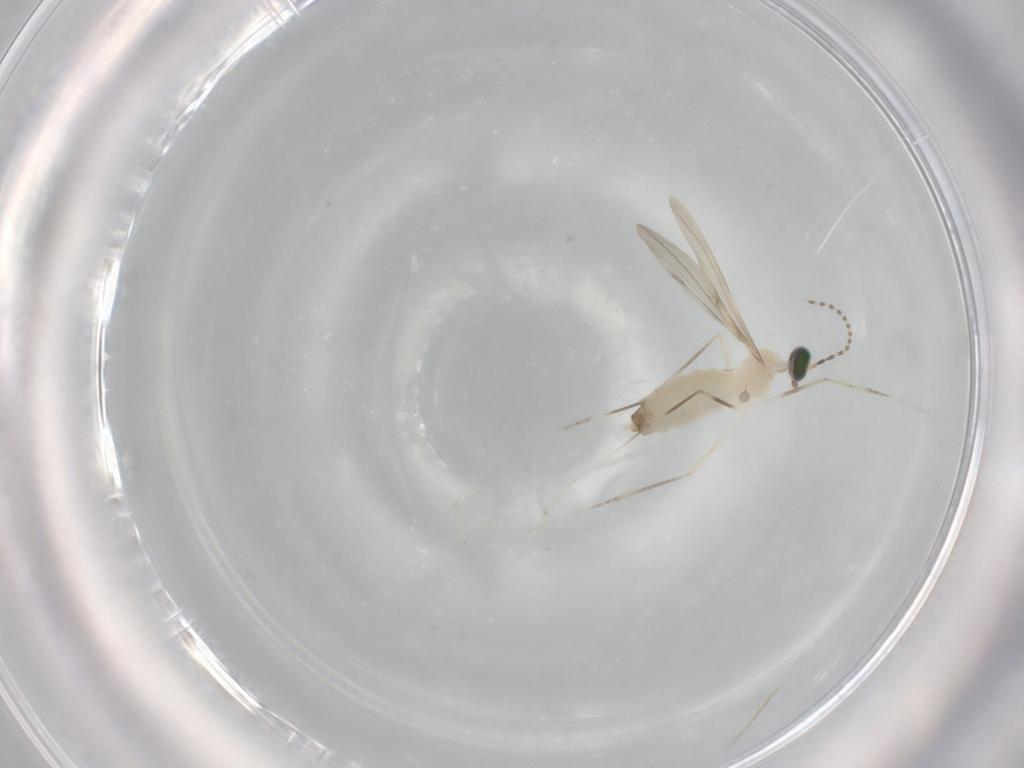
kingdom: Animalia
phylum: Arthropoda
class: Insecta
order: Diptera
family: Cecidomyiidae
